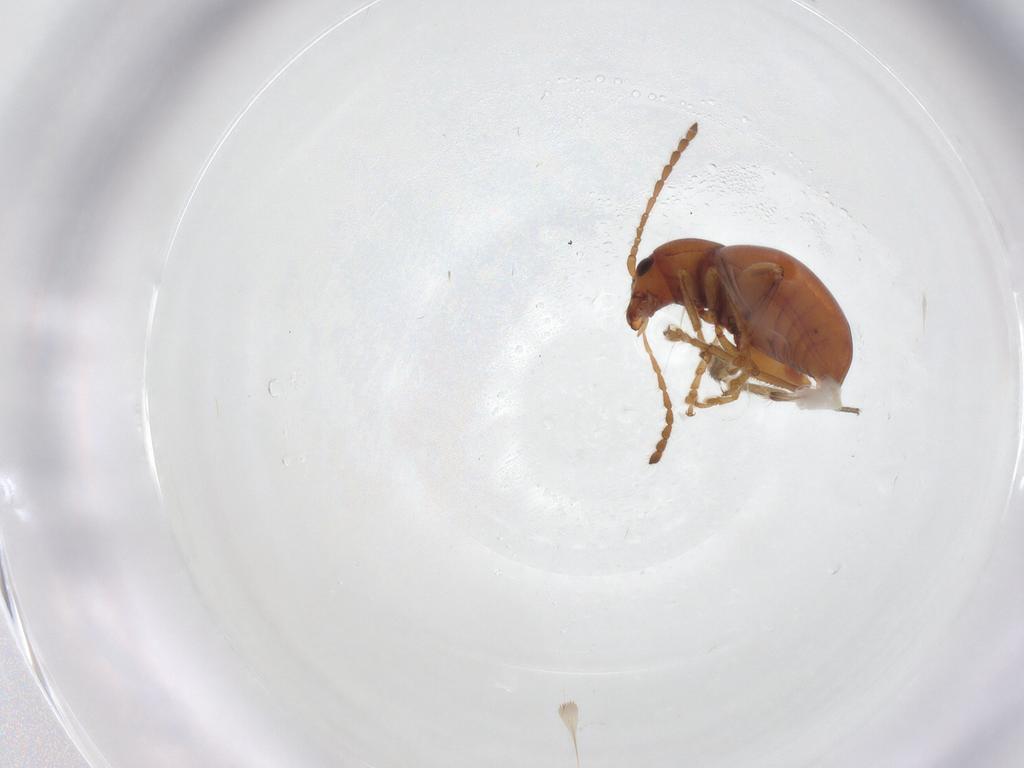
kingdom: Animalia
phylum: Arthropoda
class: Insecta
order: Coleoptera
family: Chrysomelidae
